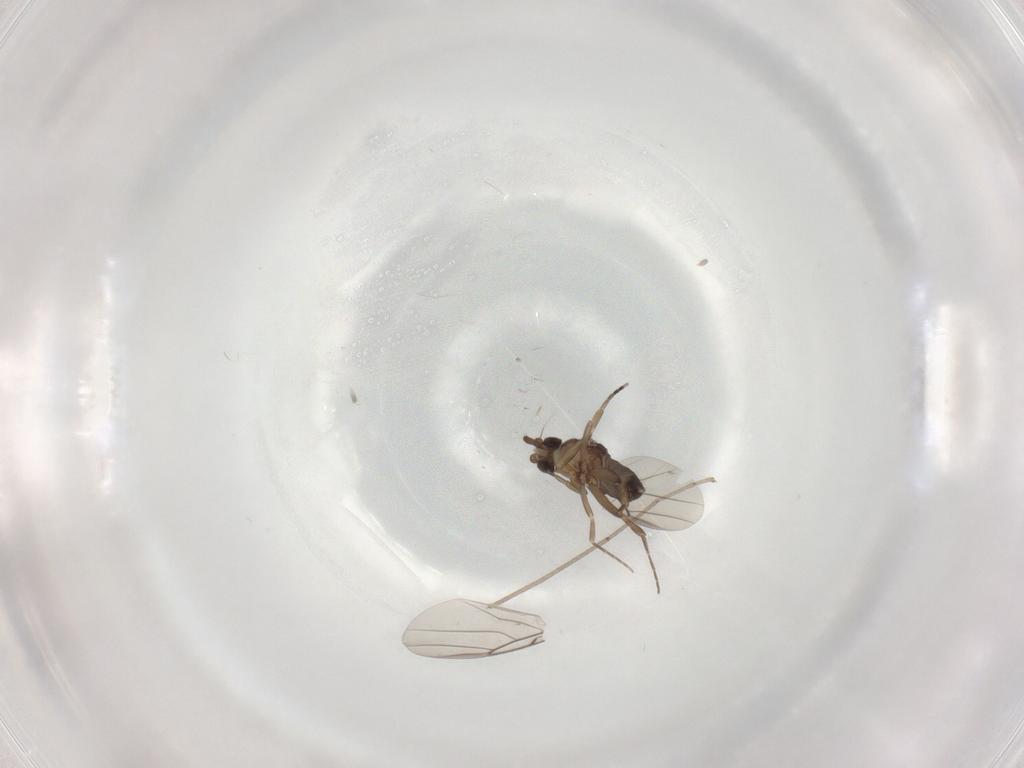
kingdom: Animalia
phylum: Arthropoda
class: Insecta
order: Diptera
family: Phoridae
